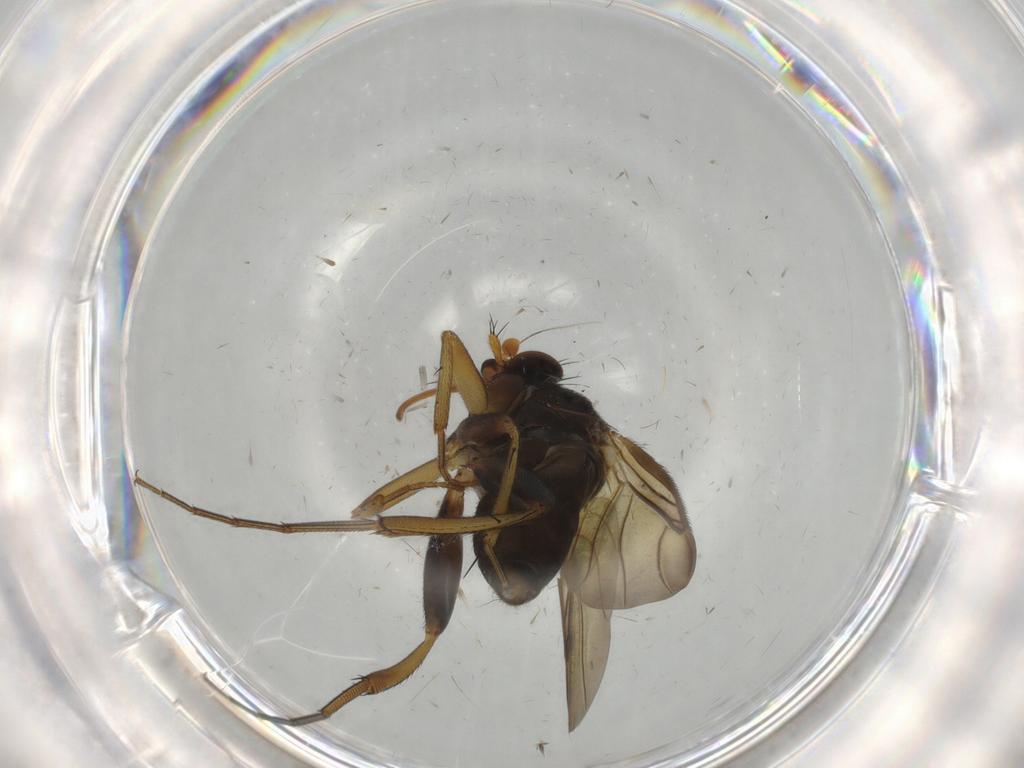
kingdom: Animalia
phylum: Arthropoda
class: Insecta
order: Diptera
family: Phoridae
